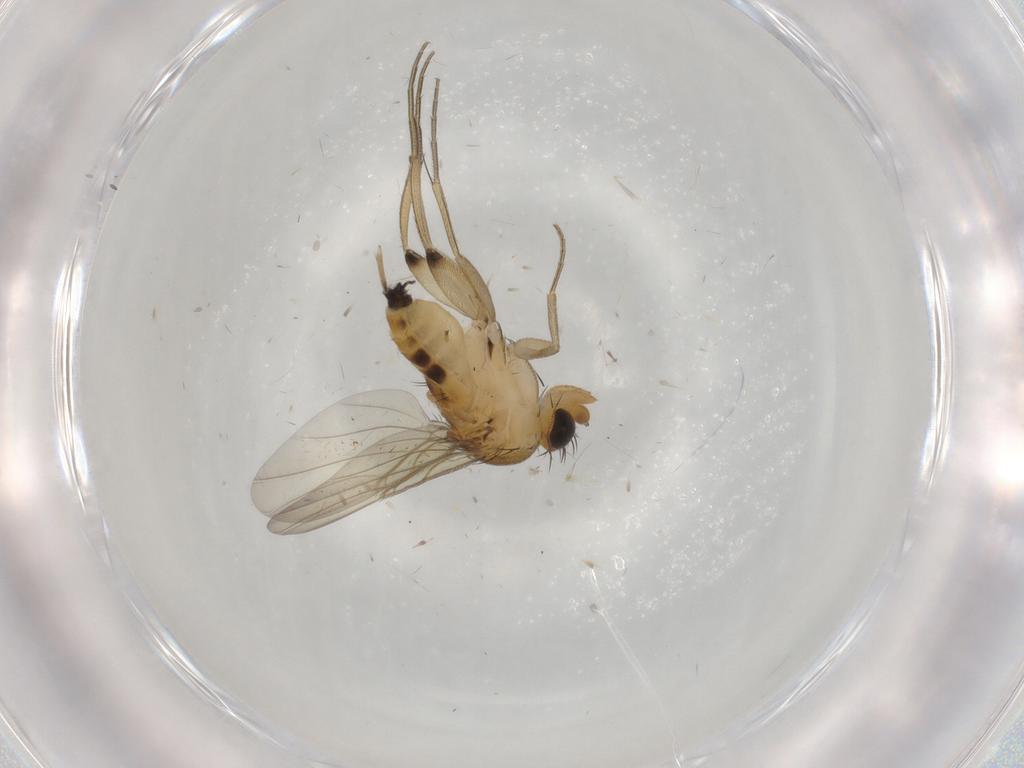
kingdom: Animalia
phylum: Arthropoda
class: Insecta
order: Diptera
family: Phoridae
